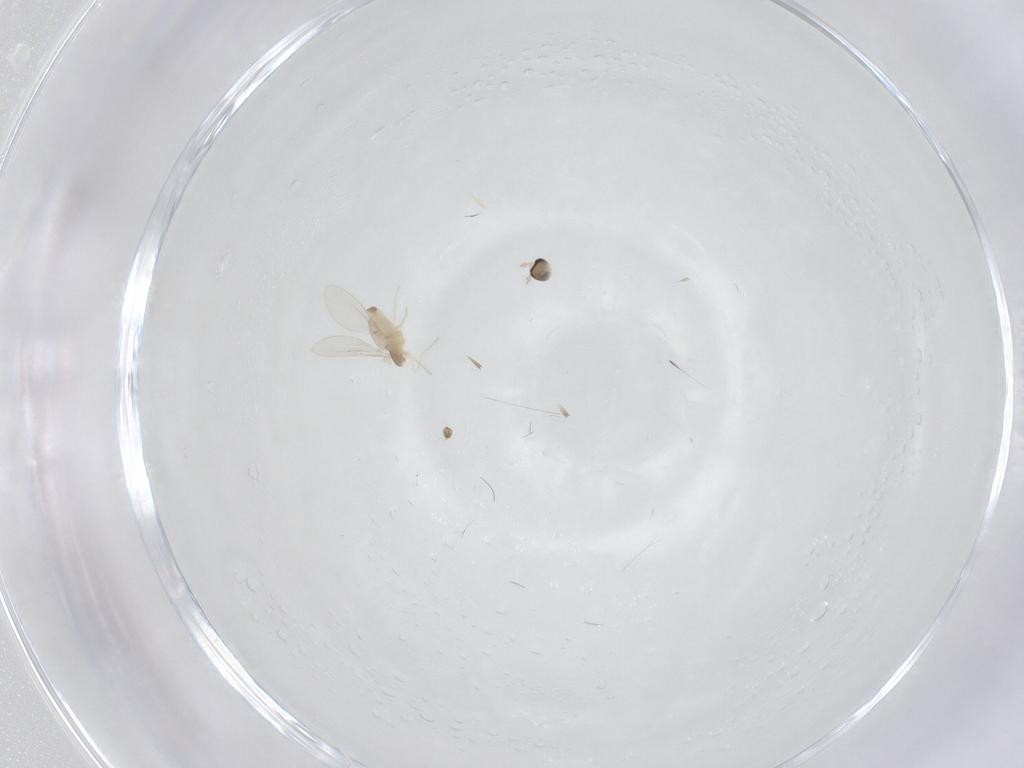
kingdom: Animalia
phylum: Arthropoda
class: Insecta
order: Diptera
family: Cecidomyiidae
